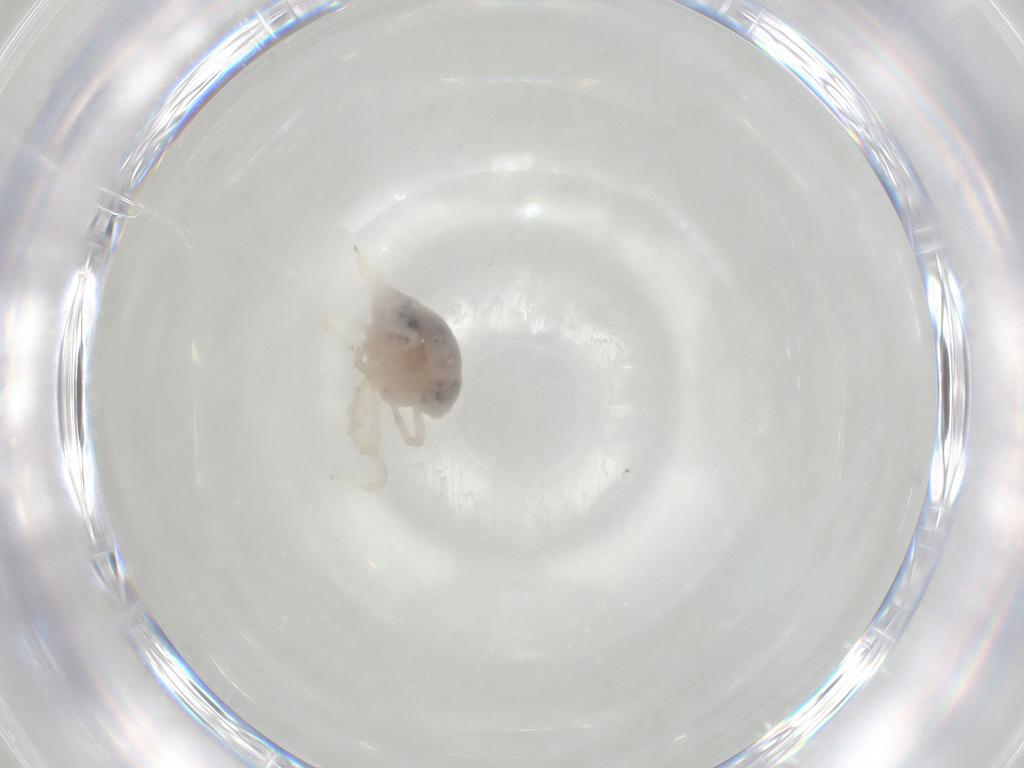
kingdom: Animalia
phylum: Arthropoda
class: Arachnida
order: Trombidiformes
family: Bdellidae
